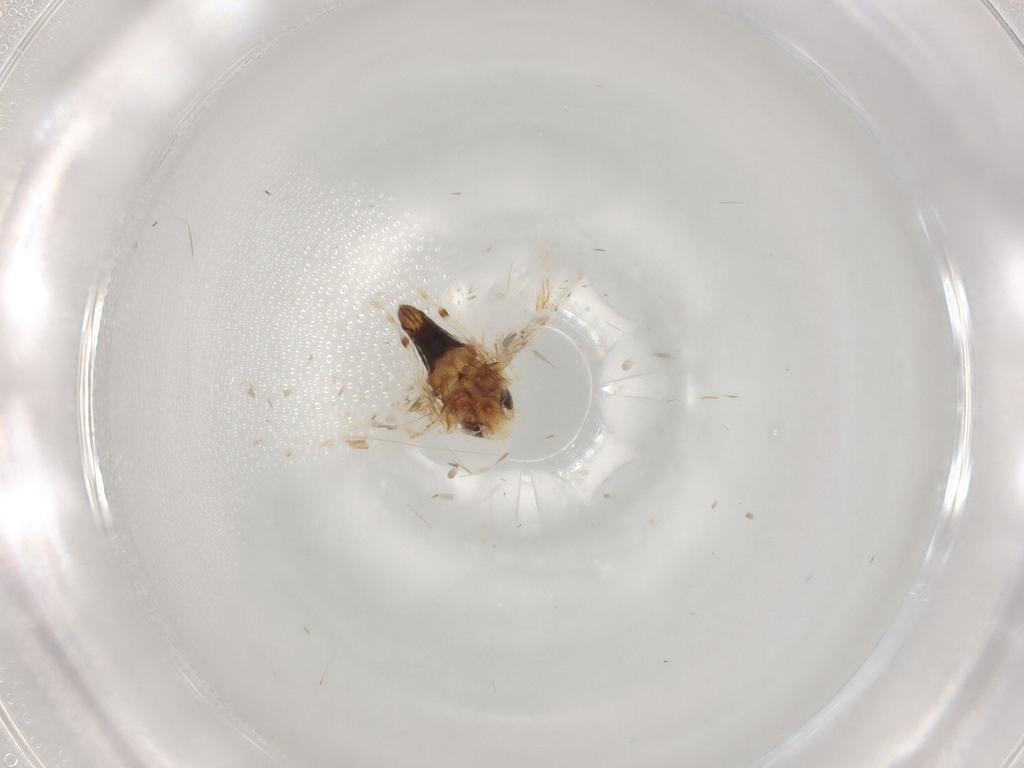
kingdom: Animalia
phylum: Arthropoda
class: Insecta
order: Hemiptera
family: Cicadellidae
